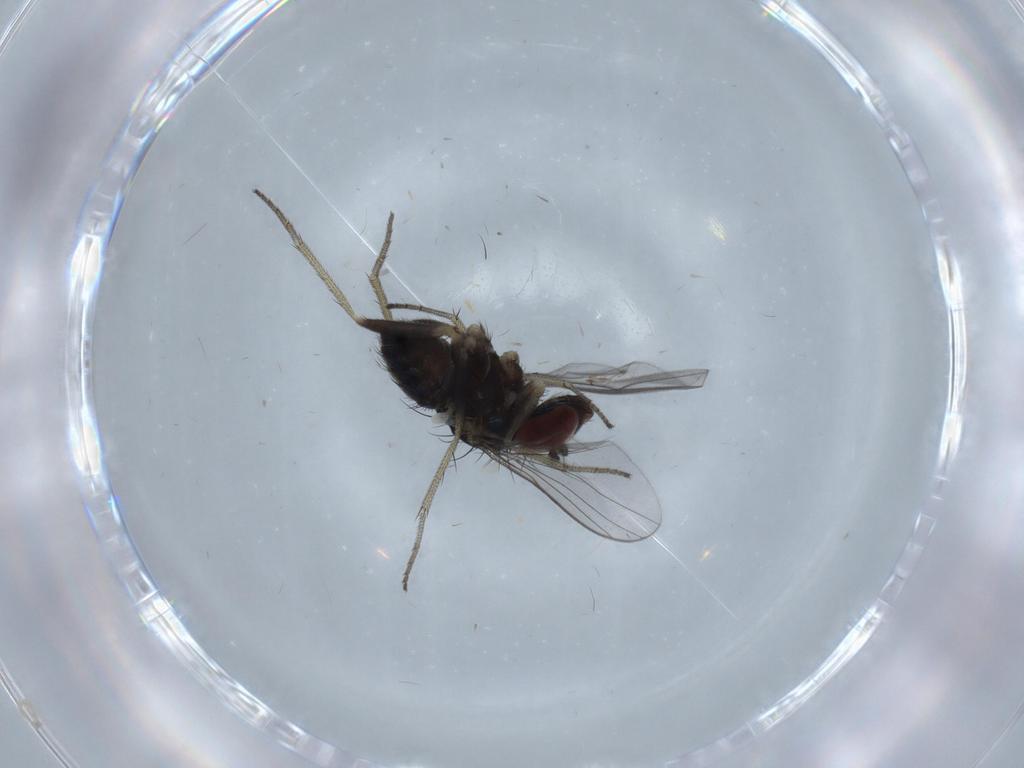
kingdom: Animalia
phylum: Arthropoda
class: Insecta
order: Diptera
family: Dolichopodidae
